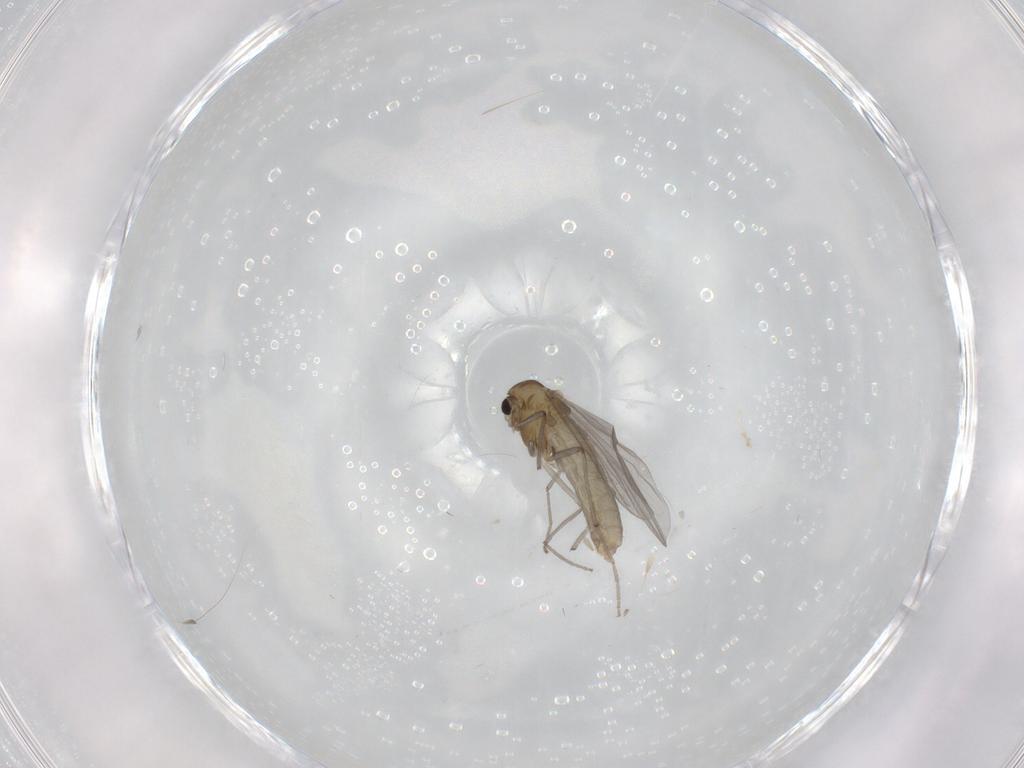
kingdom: Animalia
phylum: Arthropoda
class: Insecta
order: Diptera
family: Chironomidae
